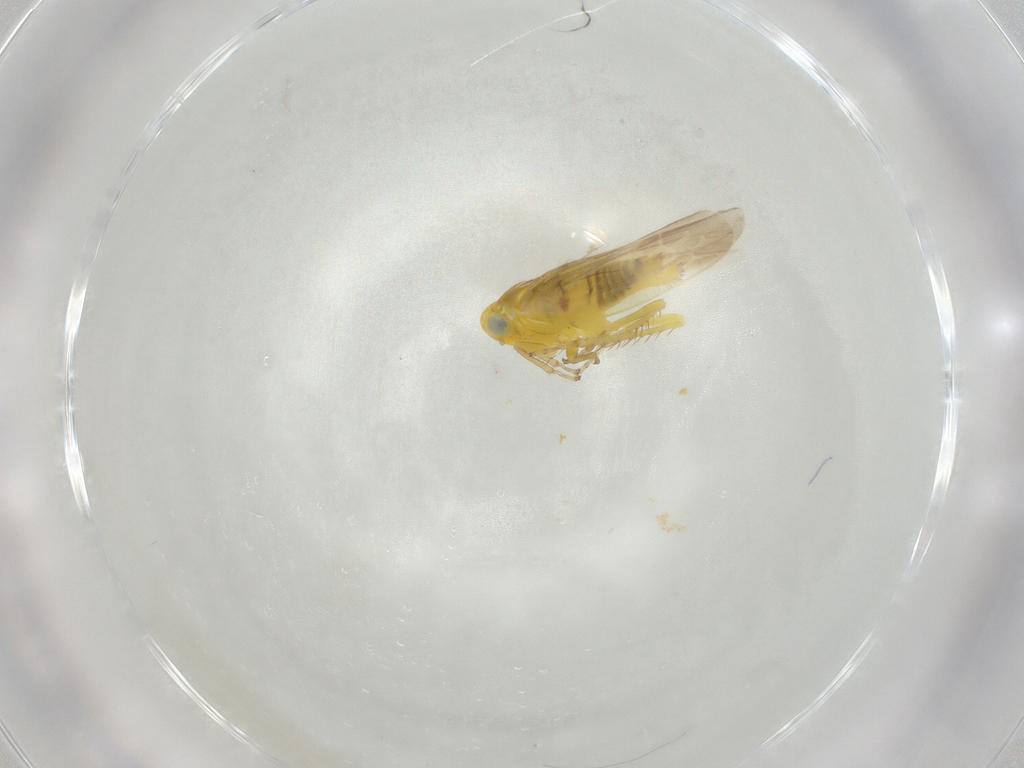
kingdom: Animalia
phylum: Arthropoda
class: Insecta
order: Hemiptera
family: Cicadellidae
